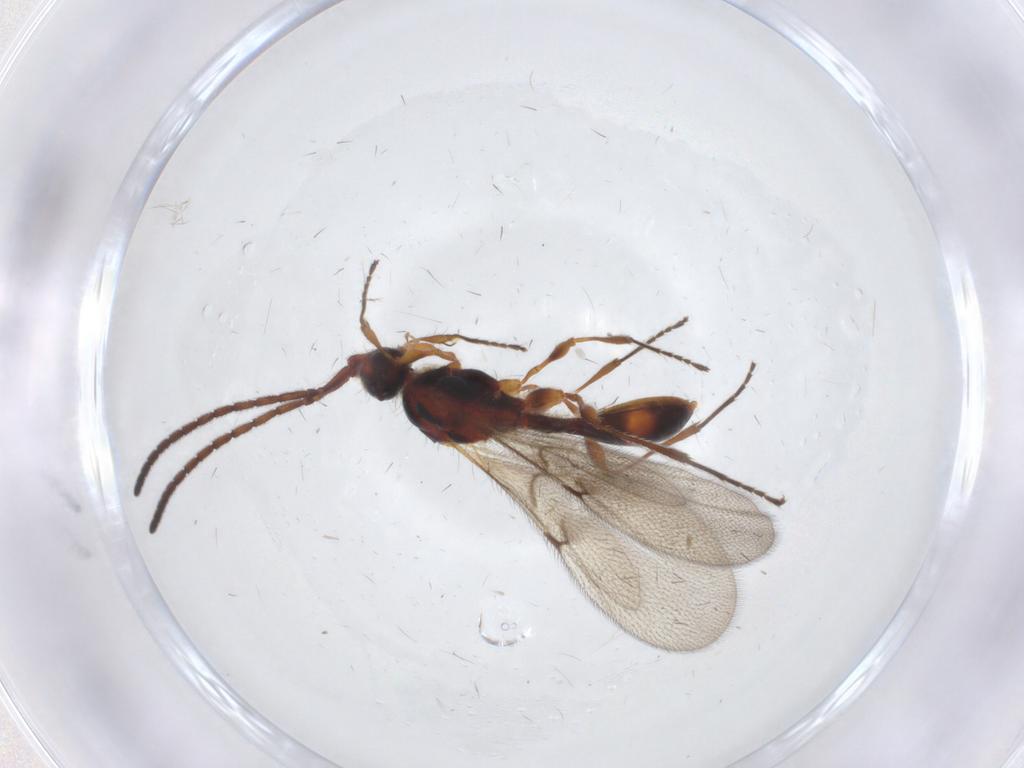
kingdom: Animalia
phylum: Arthropoda
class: Insecta
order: Hymenoptera
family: Diapriidae
